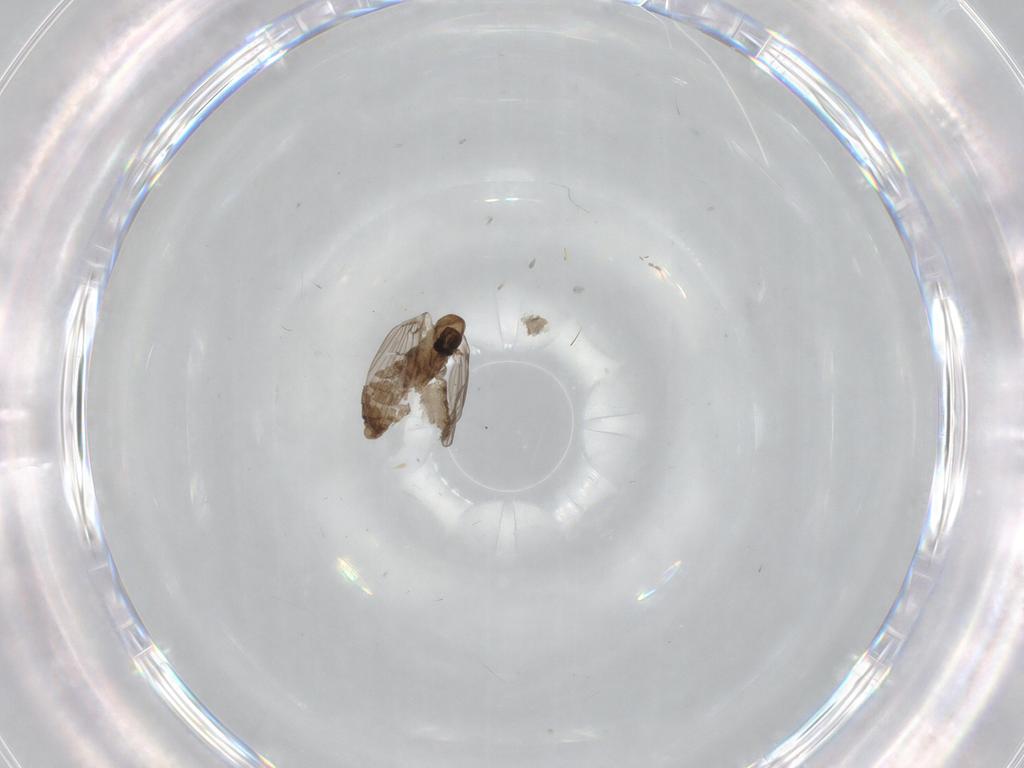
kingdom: Animalia
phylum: Arthropoda
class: Insecta
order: Diptera
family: Psychodidae
